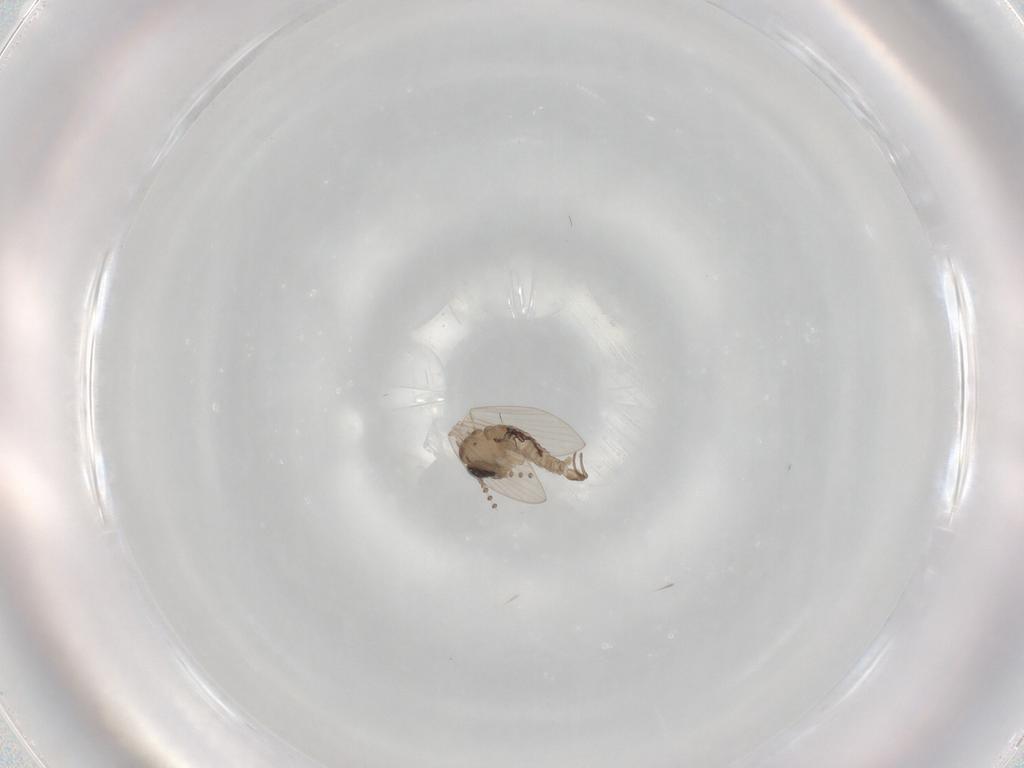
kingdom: Animalia
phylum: Arthropoda
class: Insecta
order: Diptera
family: Psychodidae
